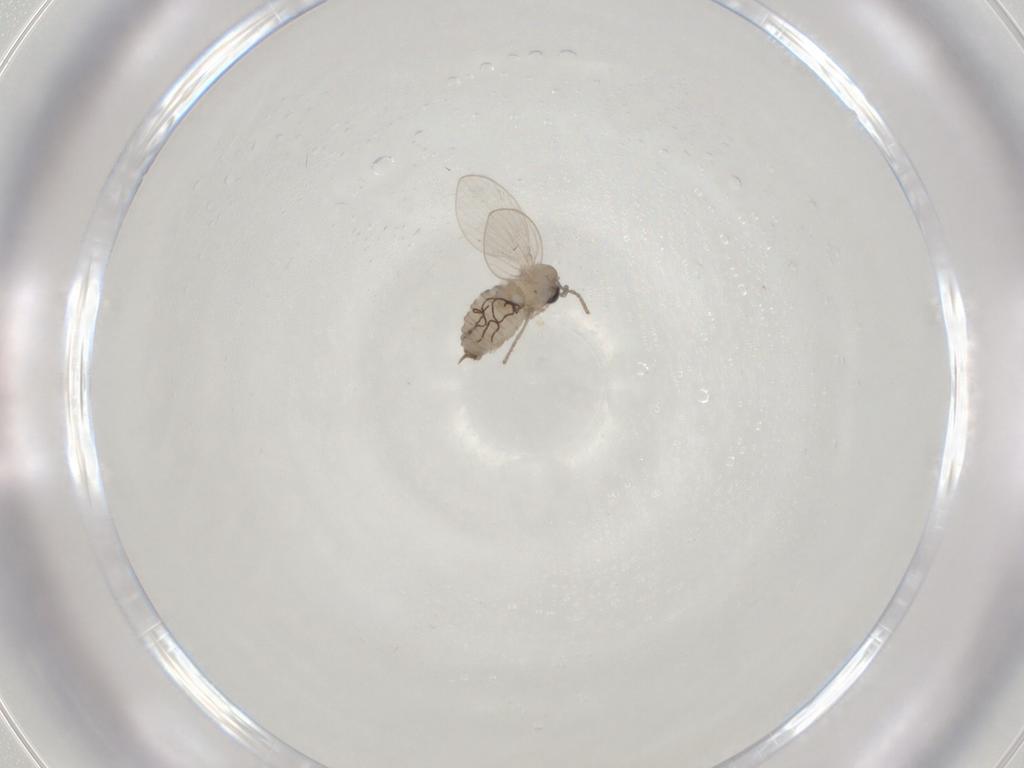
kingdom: Animalia
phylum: Arthropoda
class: Insecta
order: Diptera
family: Psychodidae
